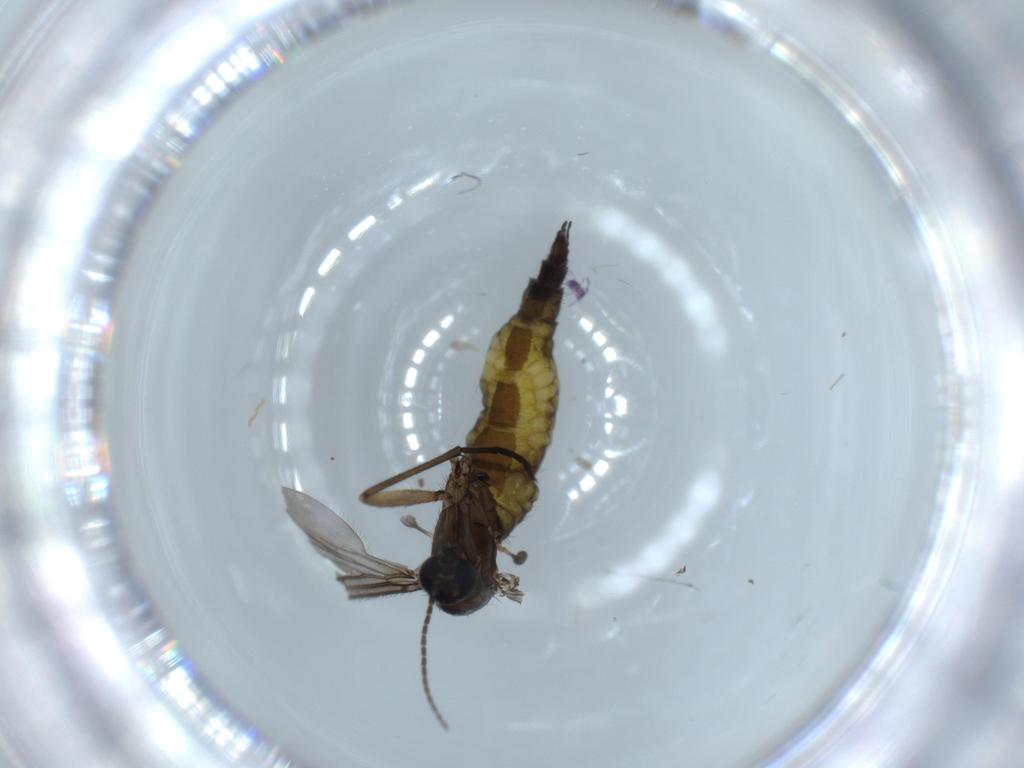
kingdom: Animalia
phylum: Arthropoda
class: Insecta
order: Diptera
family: Sciaridae
